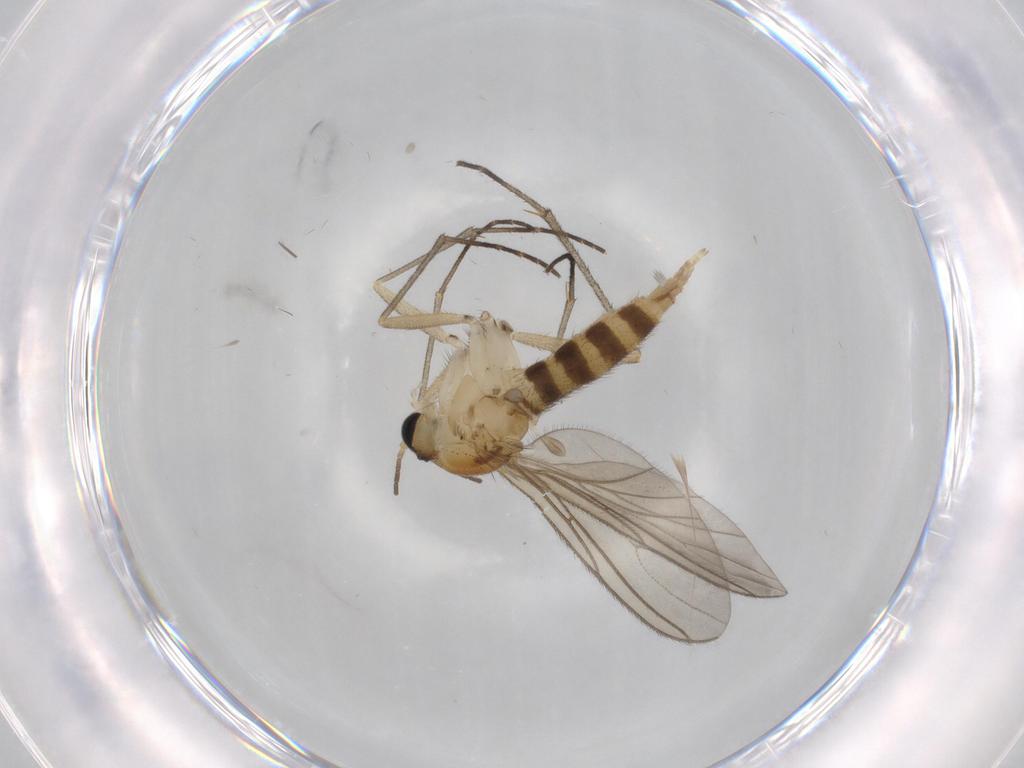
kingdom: Animalia
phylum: Arthropoda
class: Insecta
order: Diptera
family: Sciaridae
